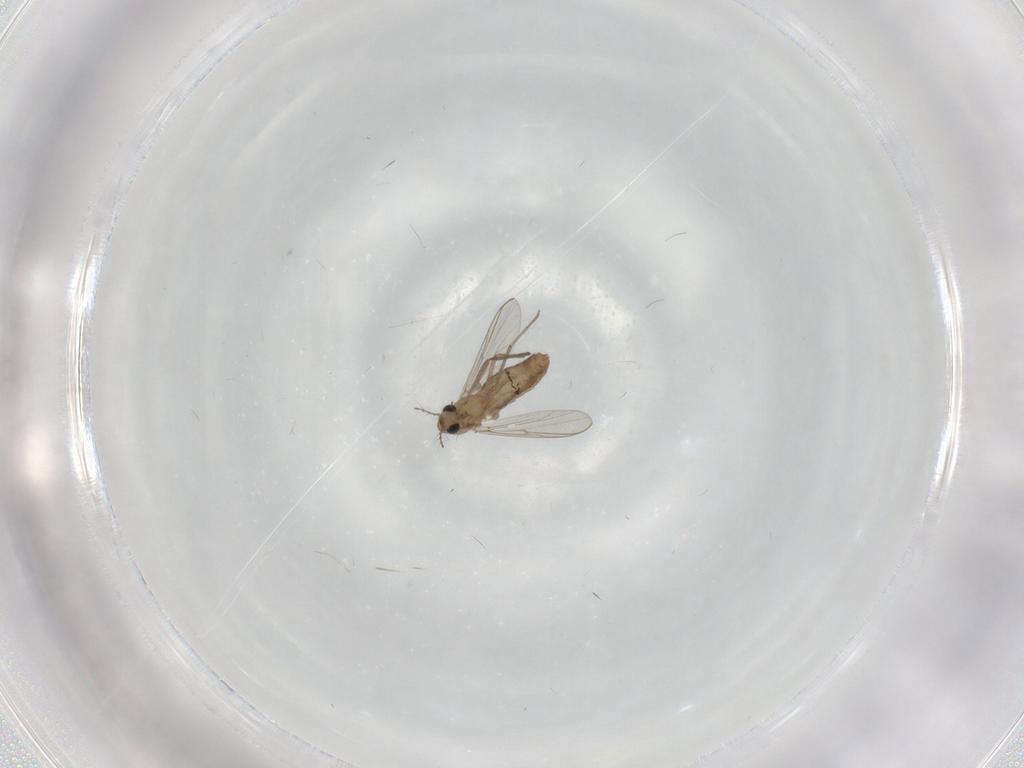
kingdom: Animalia
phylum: Arthropoda
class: Insecta
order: Diptera
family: Chironomidae
